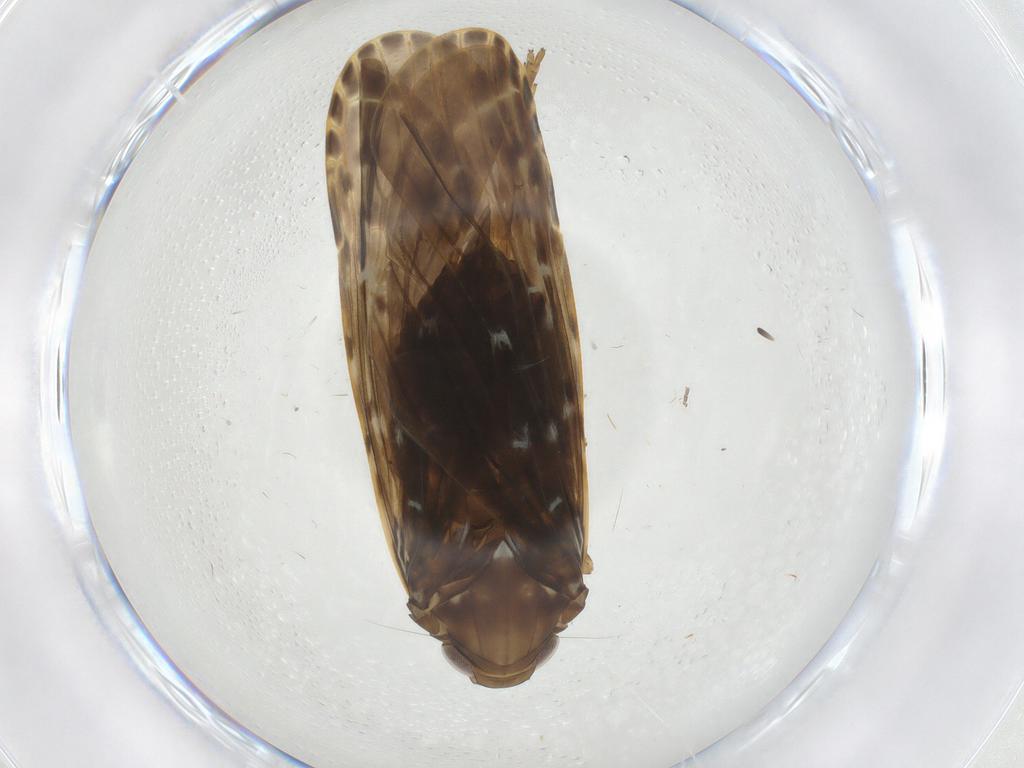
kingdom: Animalia
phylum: Arthropoda
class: Insecta
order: Hemiptera
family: Achilidae
